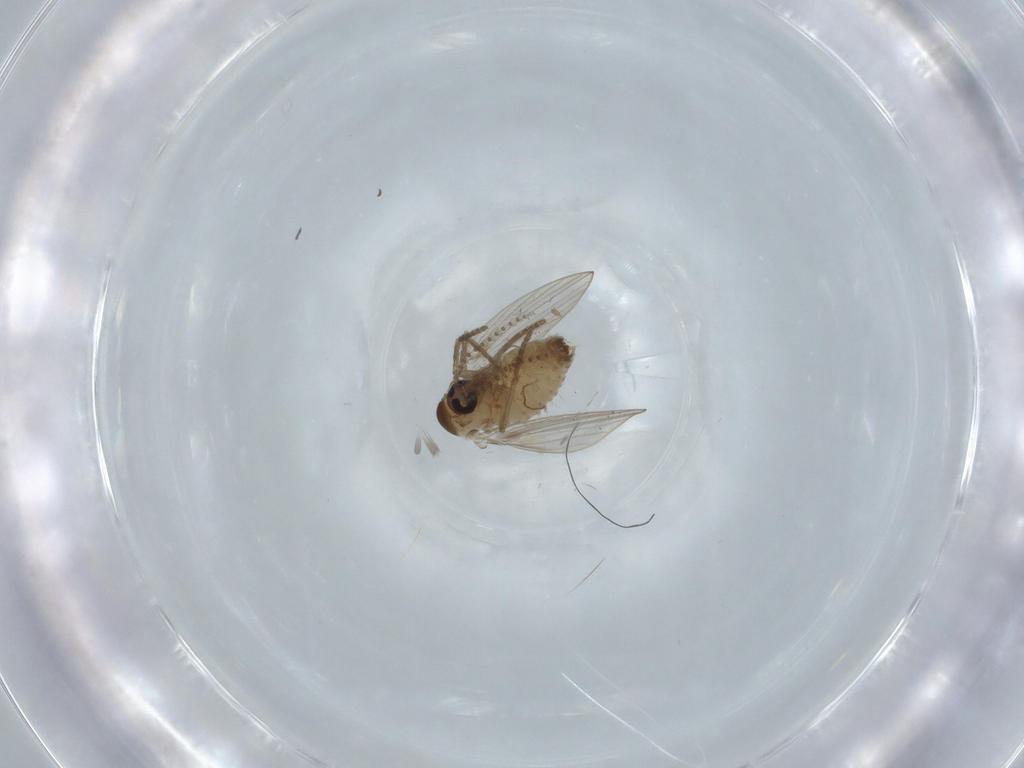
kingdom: Animalia
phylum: Arthropoda
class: Insecta
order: Diptera
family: Psychodidae
